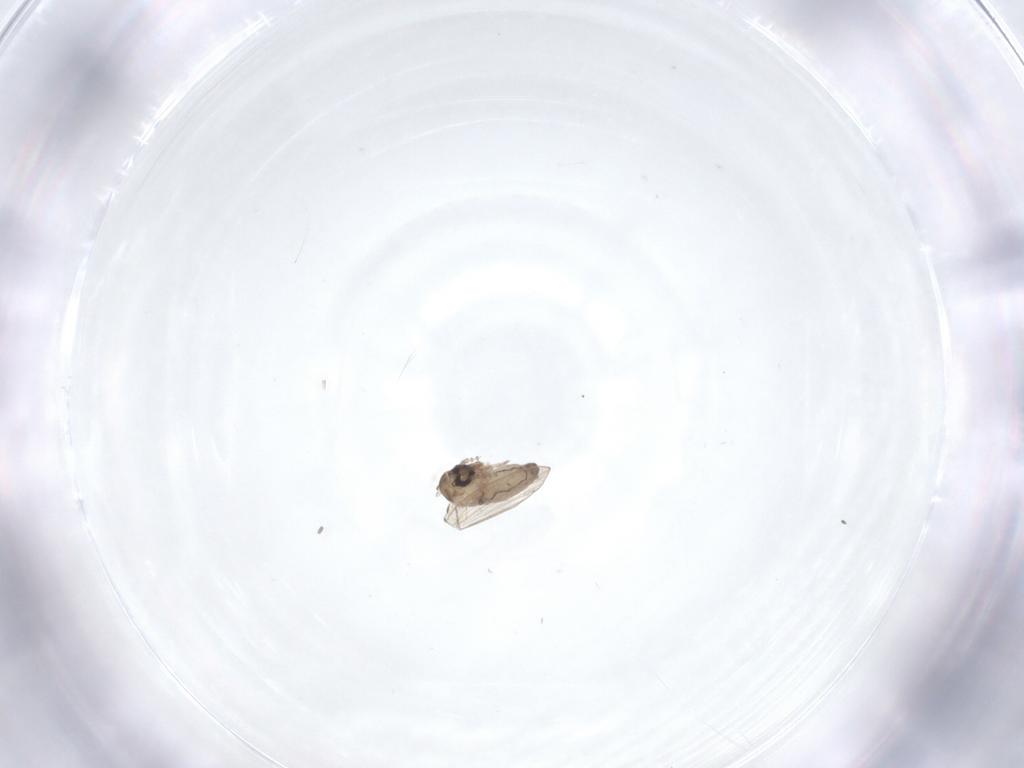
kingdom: Animalia
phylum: Arthropoda
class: Insecta
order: Diptera
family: Psychodidae
